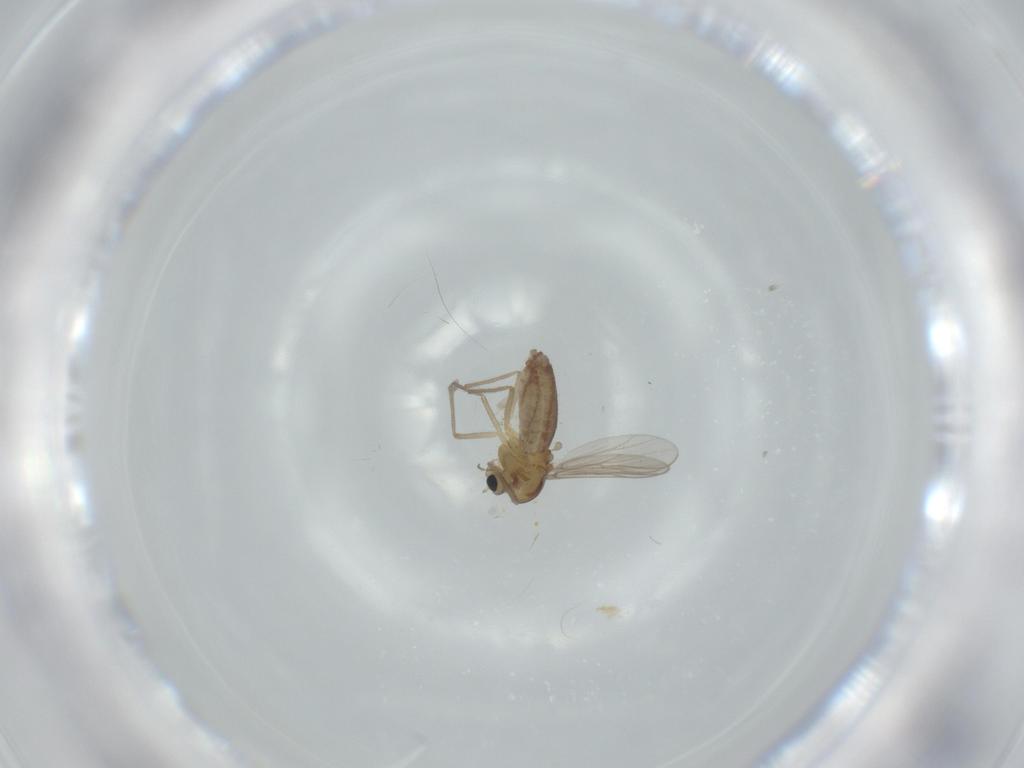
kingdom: Animalia
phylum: Arthropoda
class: Insecta
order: Diptera
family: Chironomidae
